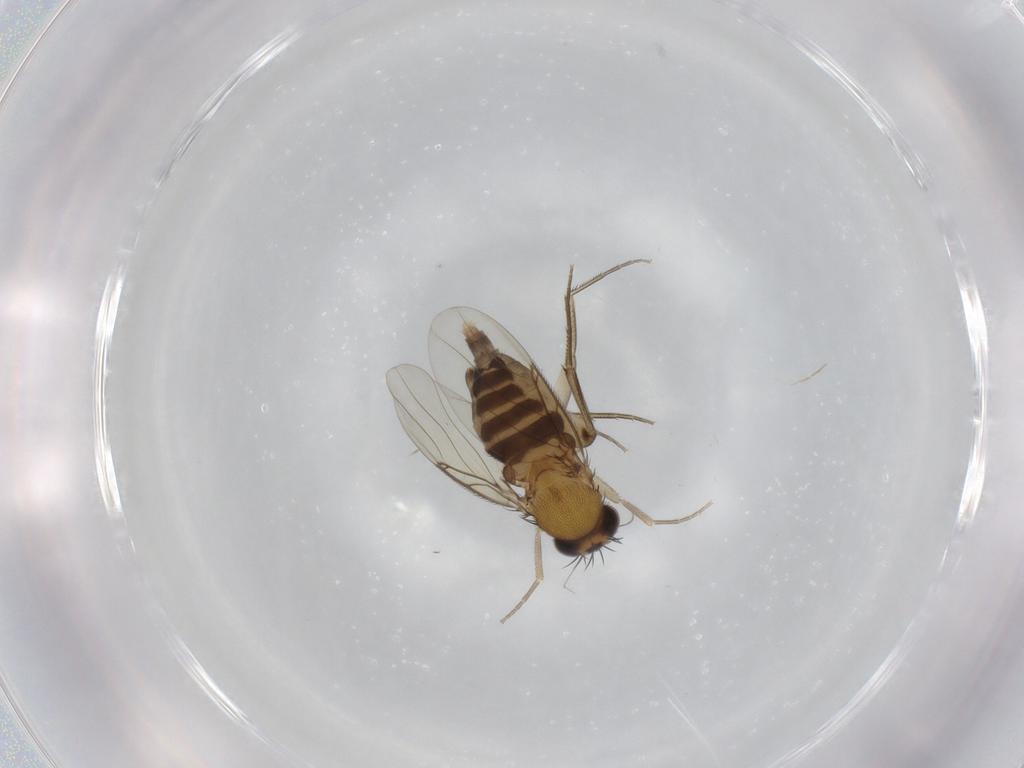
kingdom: Animalia
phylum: Arthropoda
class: Insecta
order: Diptera
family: Phoridae
